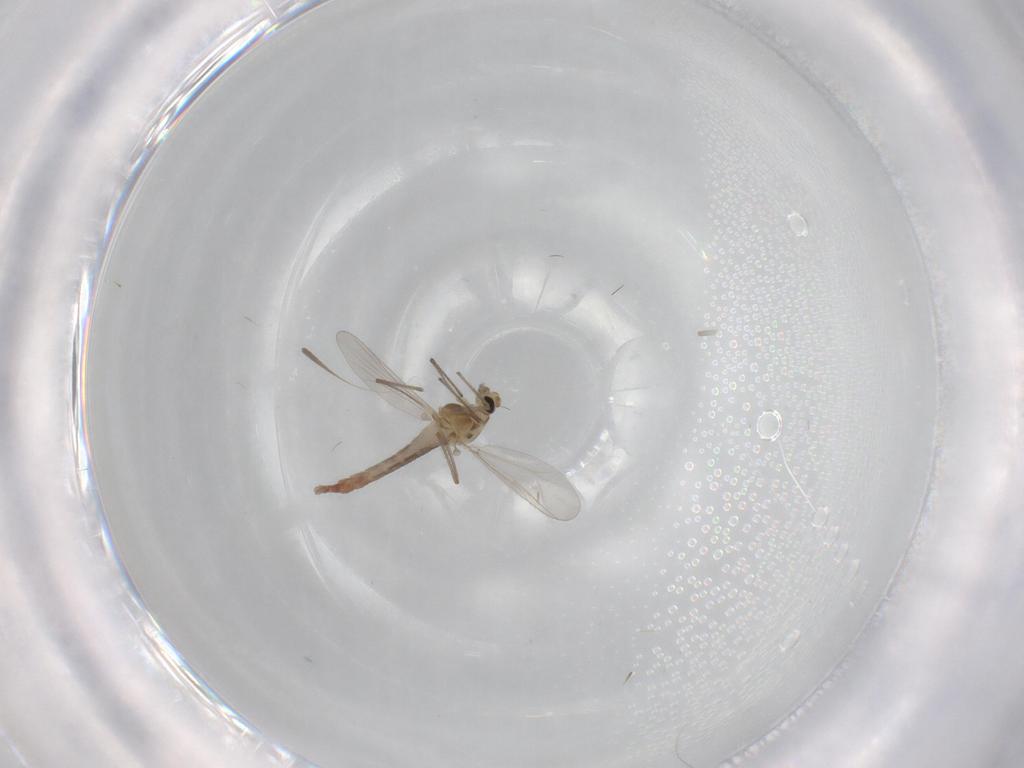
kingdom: Animalia
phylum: Arthropoda
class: Insecta
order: Diptera
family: Chironomidae
